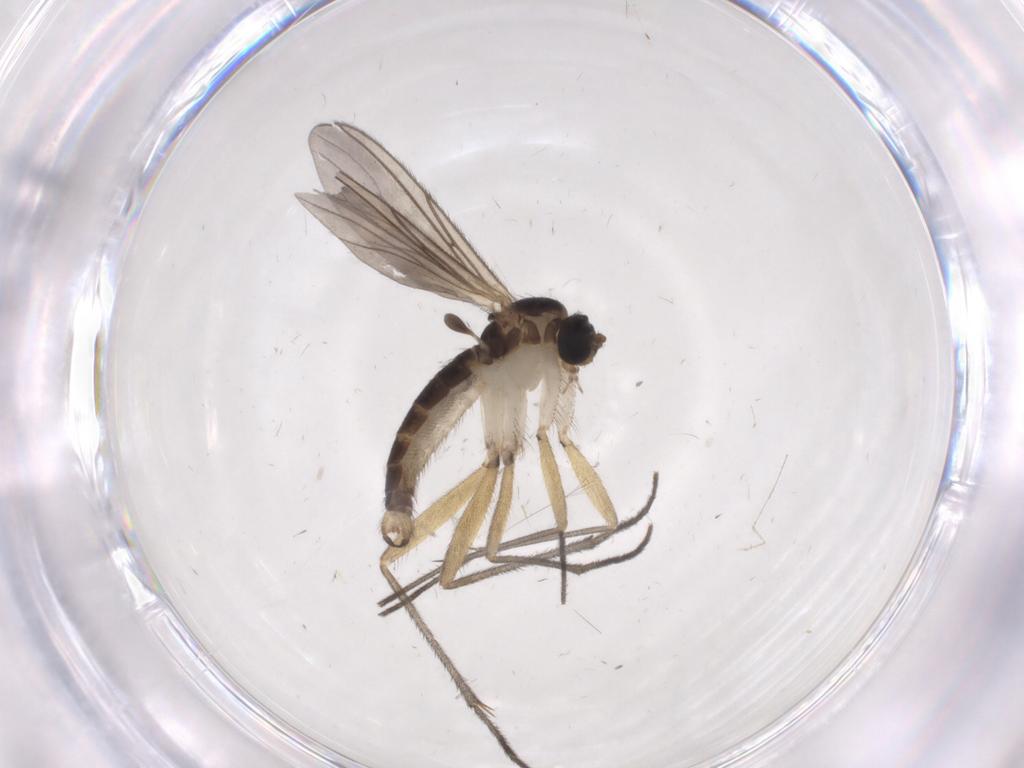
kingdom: Animalia
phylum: Arthropoda
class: Insecta
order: Diptera
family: Sciaridae
